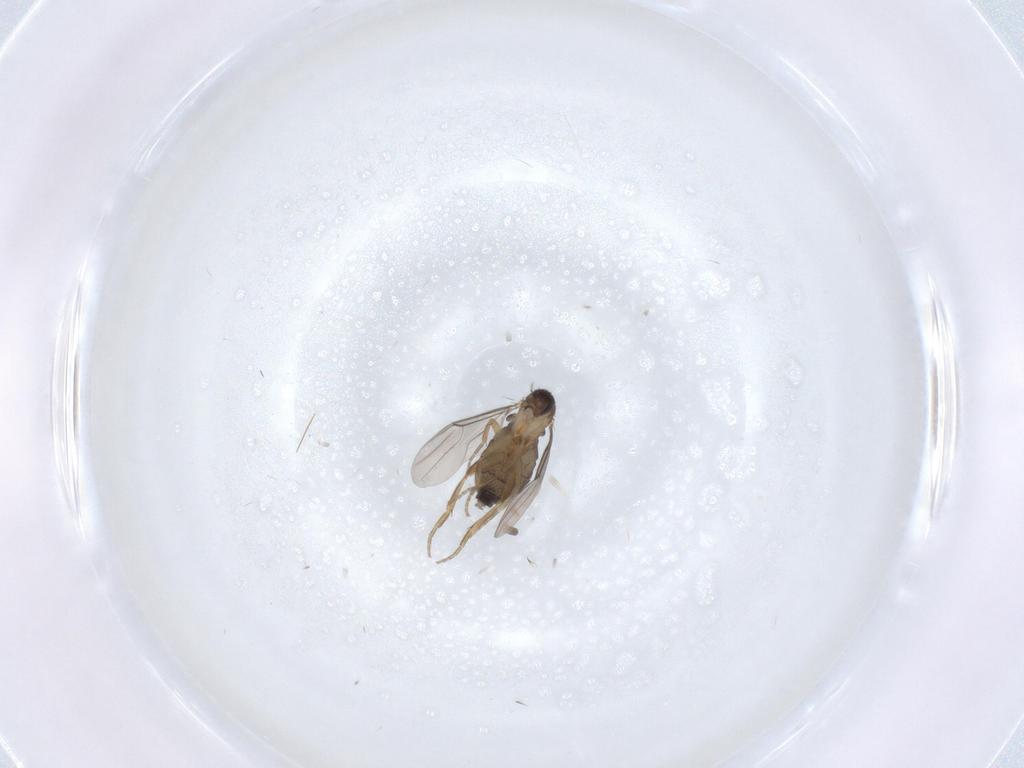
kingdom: Animalia
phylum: Arthropoda
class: Insecta
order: Diptera
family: Phoridae
